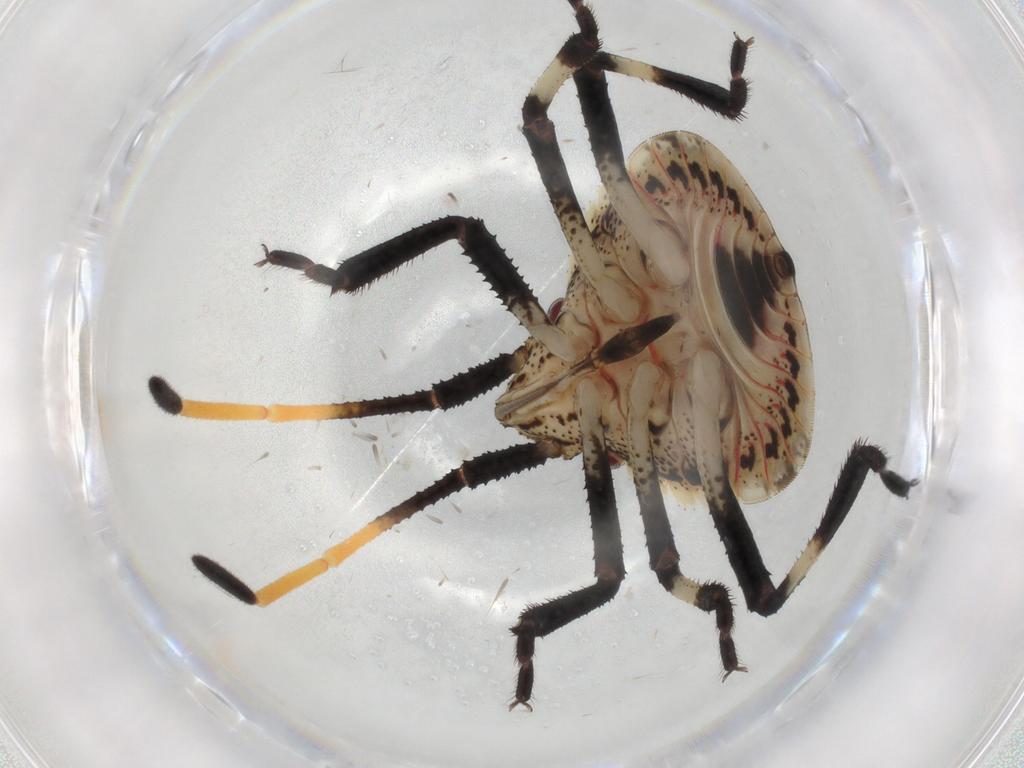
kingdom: Animalia
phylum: Arthropoda
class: Insecta
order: Hemiptera
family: Pentatomidae
